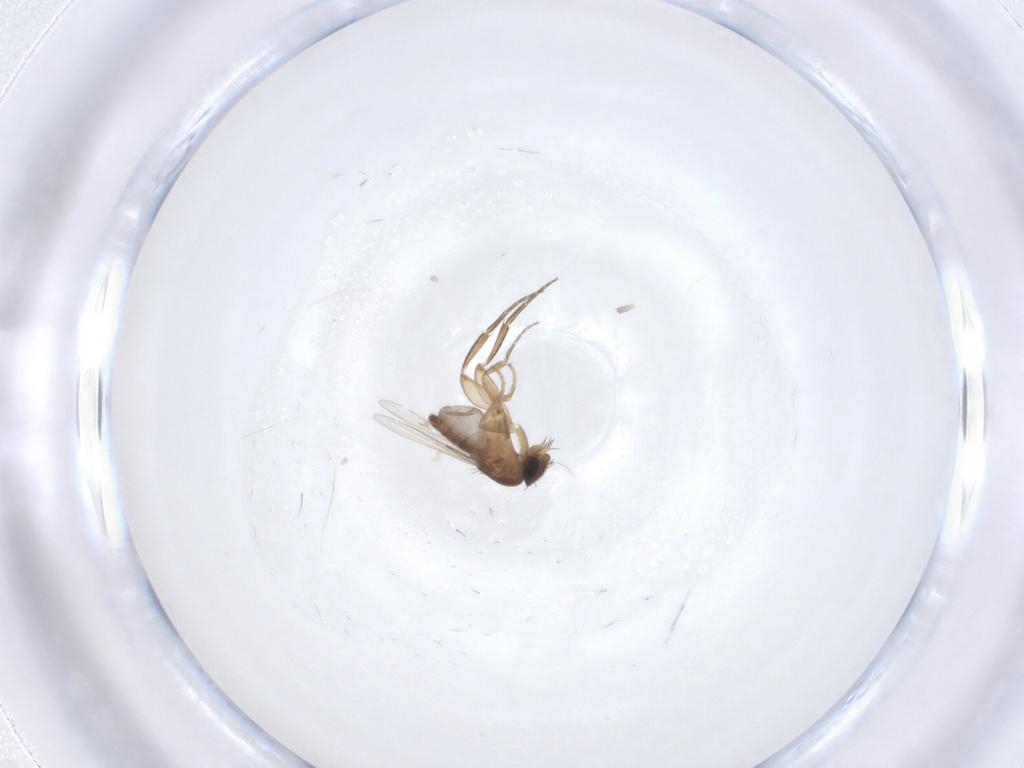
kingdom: Animalia
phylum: Arthropoda
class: Insecta
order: Diptera
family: Phoridae
